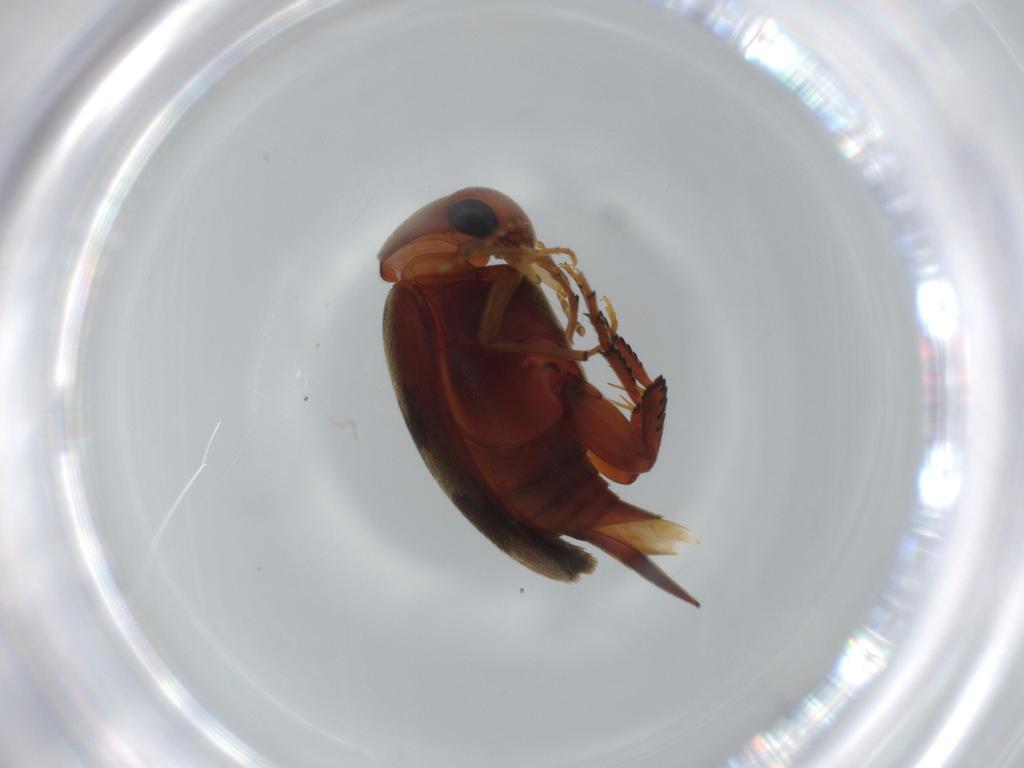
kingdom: Animalia
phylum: Arthropoda
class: Insecta
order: Coleoptera
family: Mordellidae
